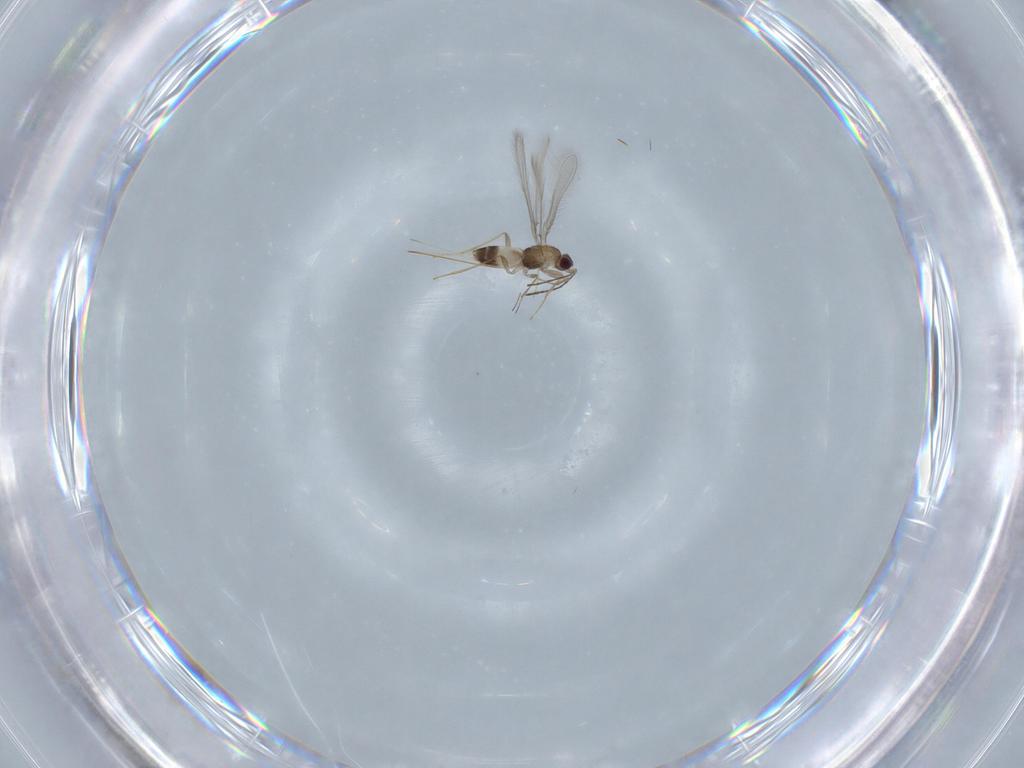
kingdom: Animalia
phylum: Arthropoda
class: Insecta
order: Hymenoptera
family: Mymaridae
